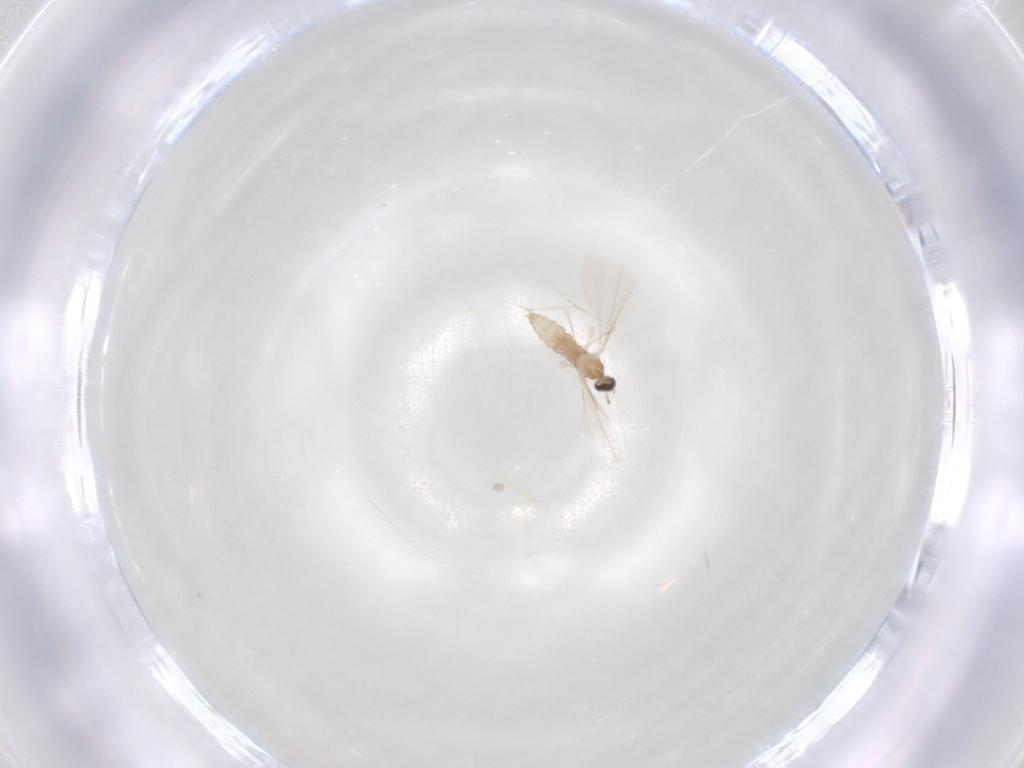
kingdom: Animalia
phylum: Arthropoda
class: Insecta
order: Diptera
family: Cecidomyiidae
